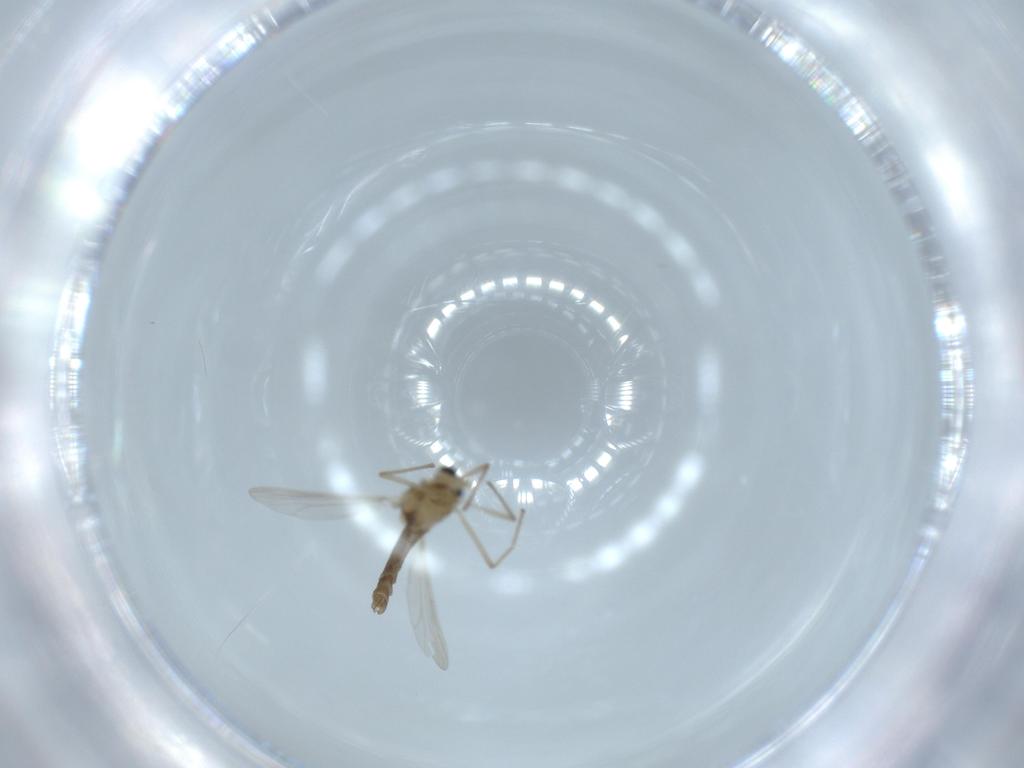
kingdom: Animalia
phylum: Arthropoda
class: Insecta
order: Diptera
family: Chironomidae
